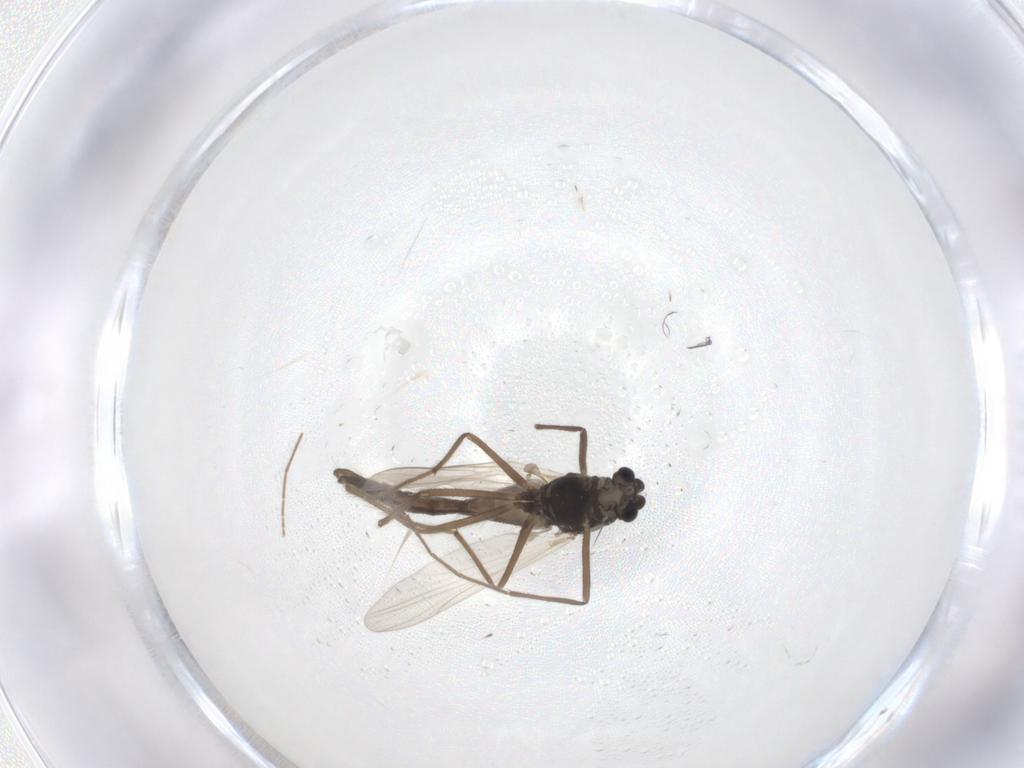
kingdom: Animalia
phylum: Arthropoda
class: Insecta
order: Diptera
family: Chironomidae
